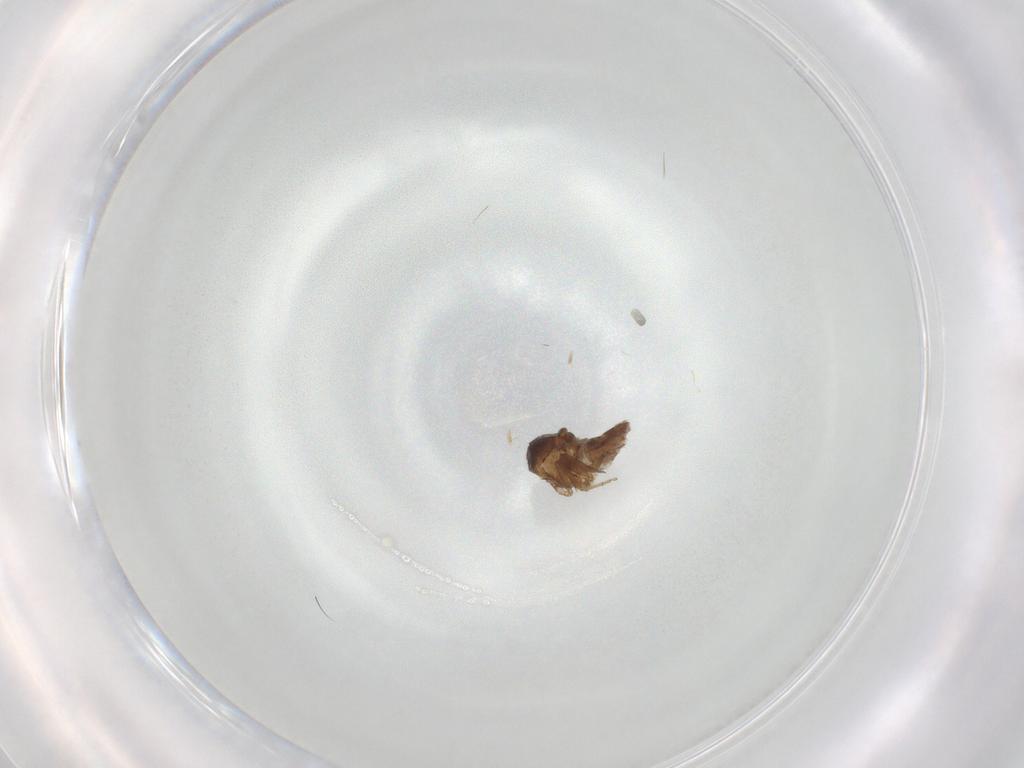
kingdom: Animalia
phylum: Arthropoda
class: Insecta
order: Diptera
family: Ceratopogonidae
